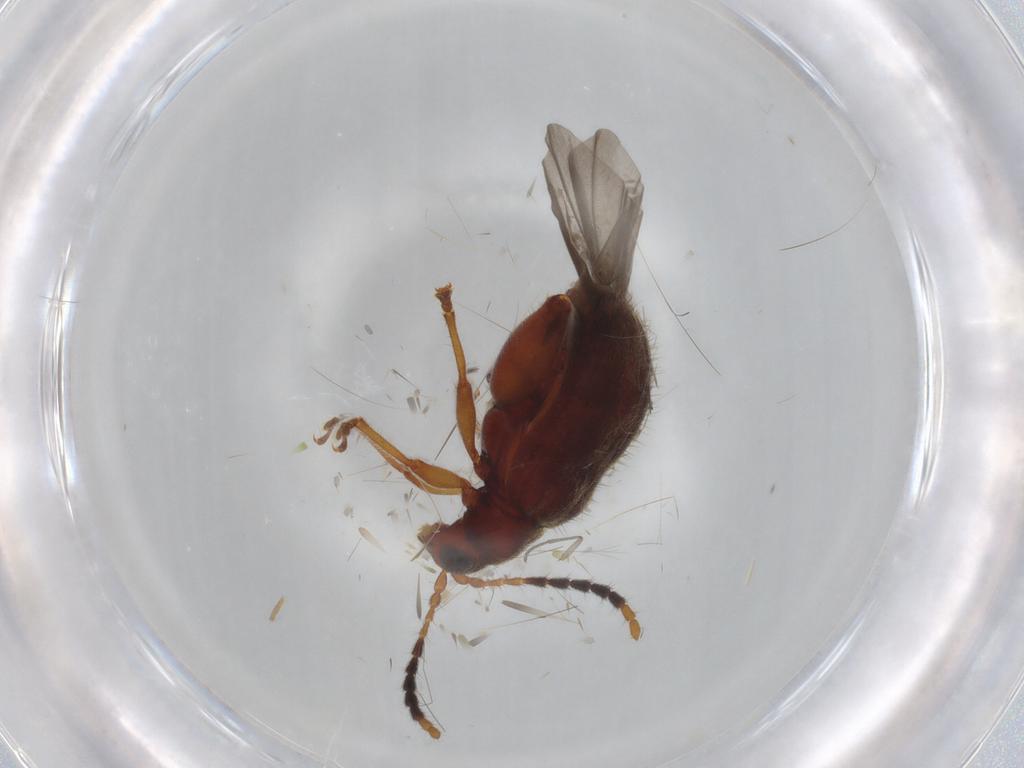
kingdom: Animalia
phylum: Arthropoda
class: Insecta
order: Coleoptera
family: Chrysomelidae
